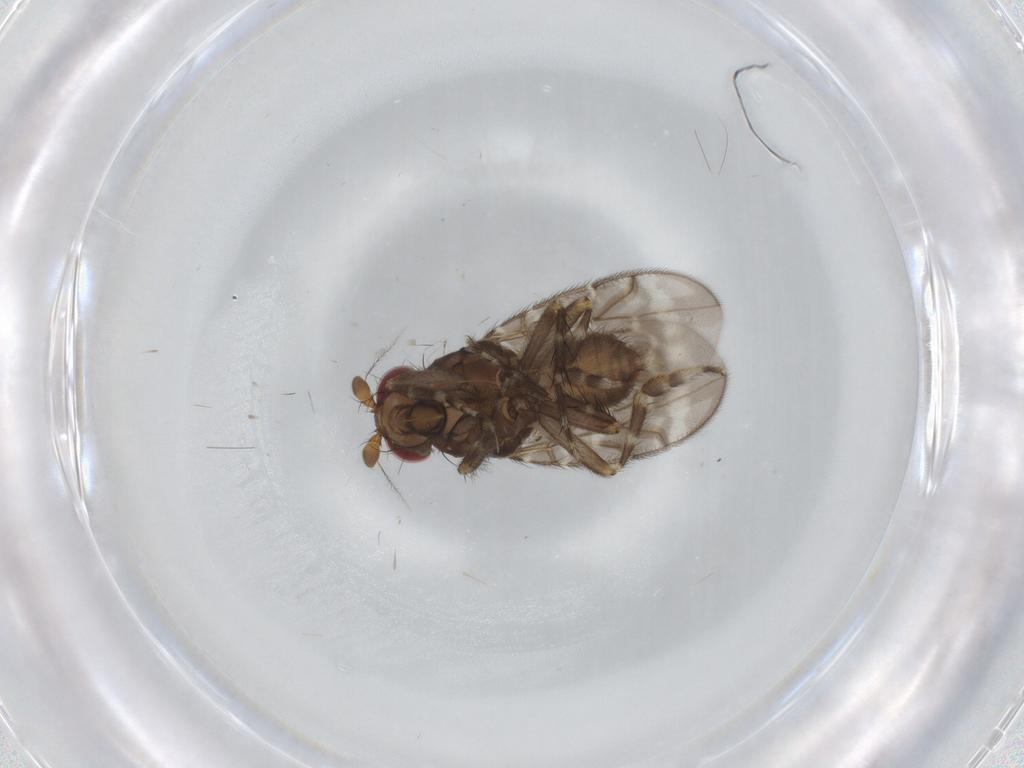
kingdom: Animalia
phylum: Arthropoda
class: Insecta
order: Diptera
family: Sphaeroceridae
